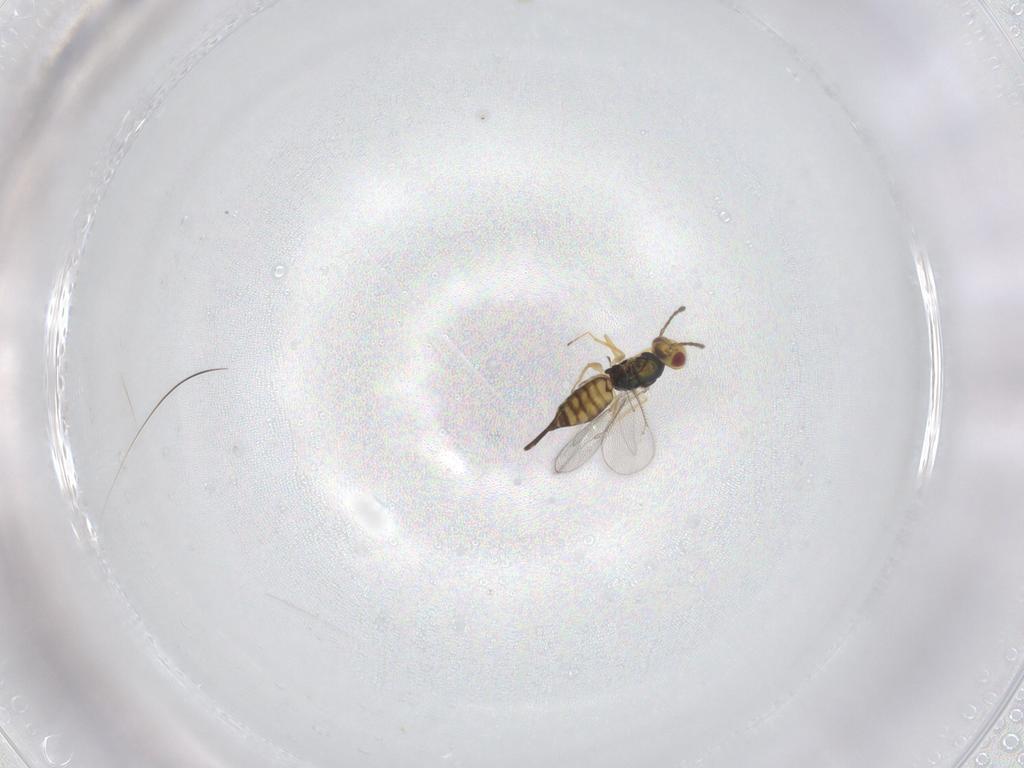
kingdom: Animalia
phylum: Arthropoda
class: Insecta
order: Hymenoptera
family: Eulophidae
